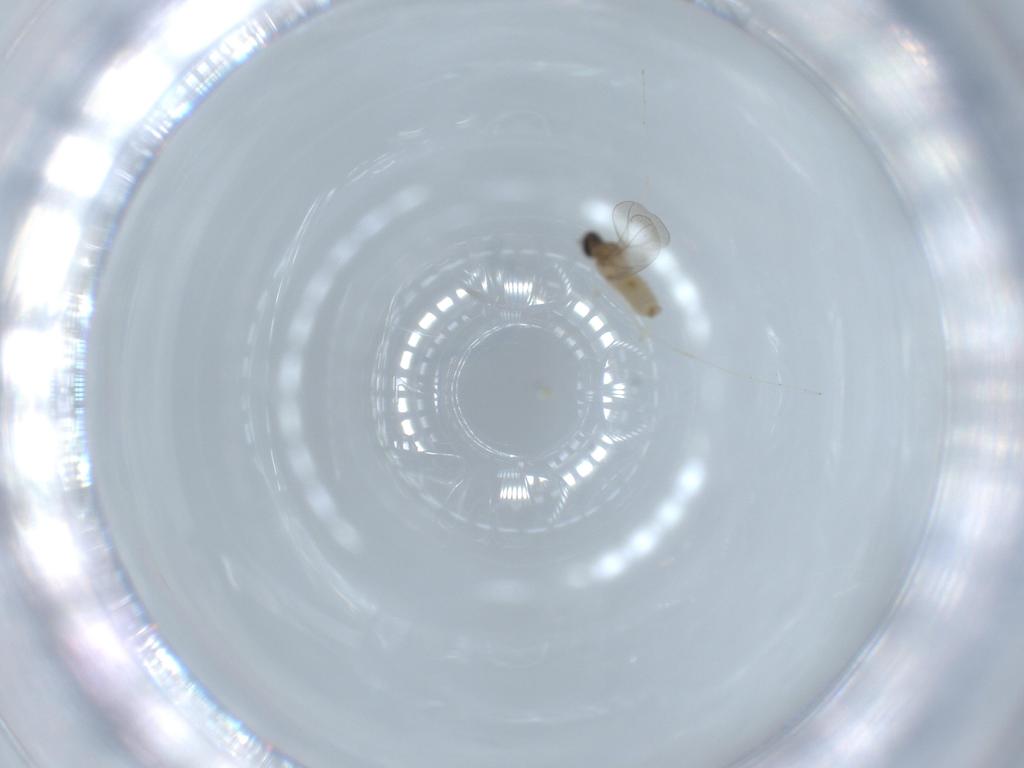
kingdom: Animalia
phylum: Arthropoda
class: Insecta
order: Diptera
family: Cecidomyiidae
